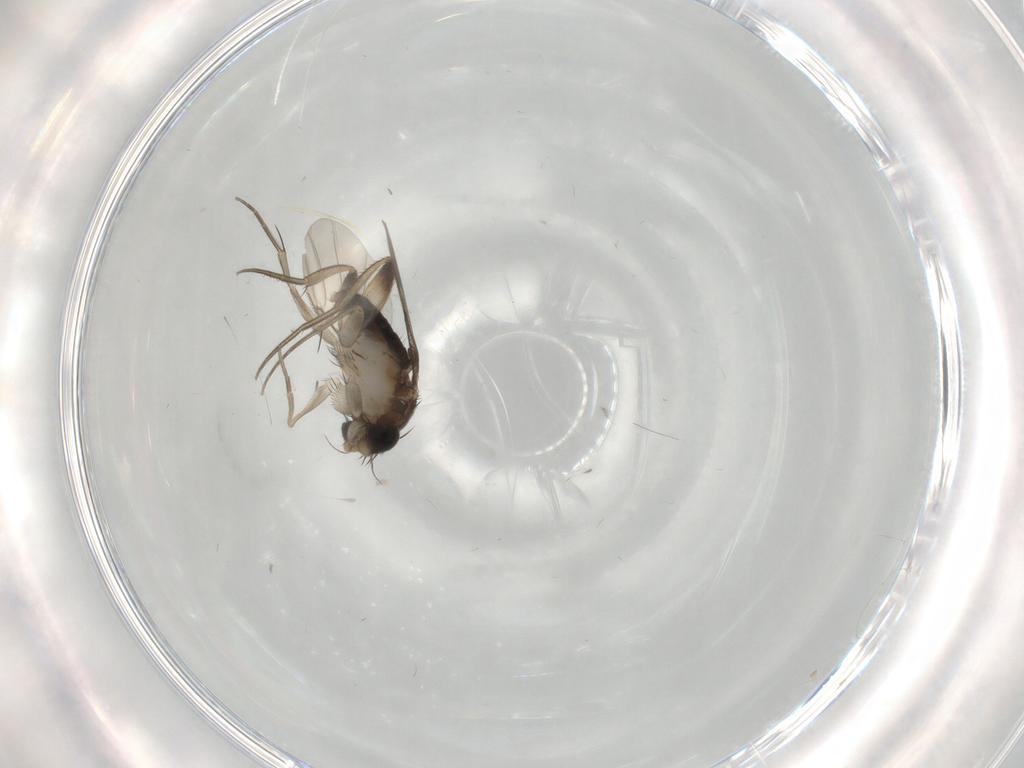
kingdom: Animalia
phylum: Arthropoda
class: Insecta
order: Diptera
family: Cecidomyiidae
